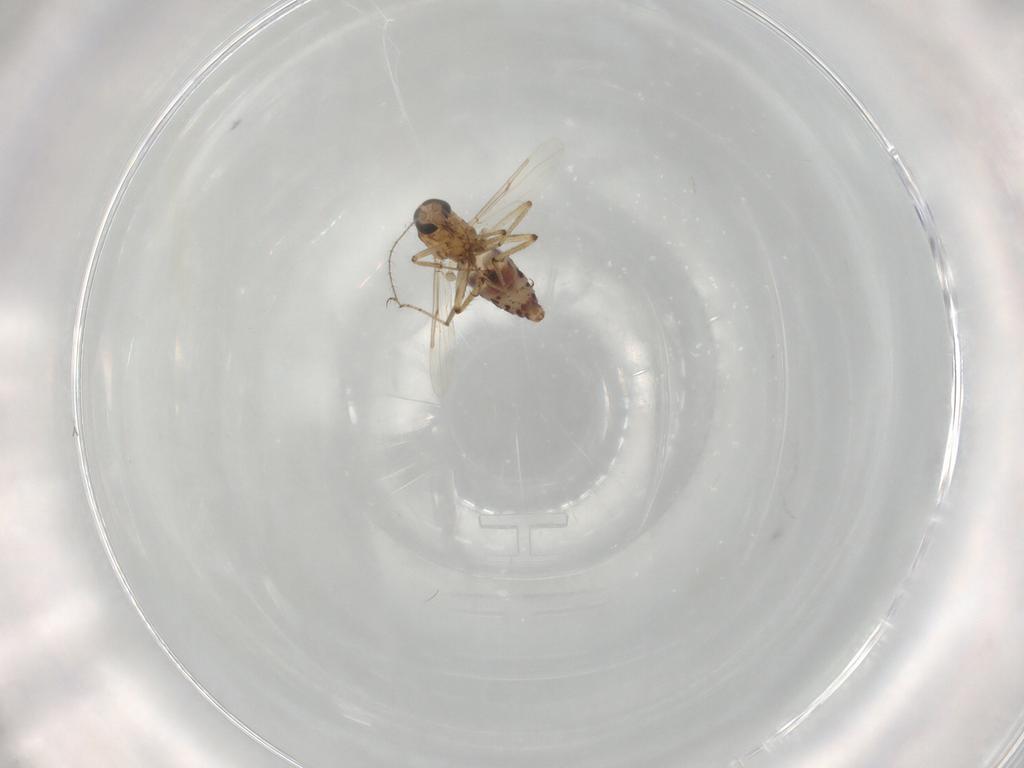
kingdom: Animalia
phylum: Arthropoda
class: Insecta
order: Diptera
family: Ceratopogonidae
